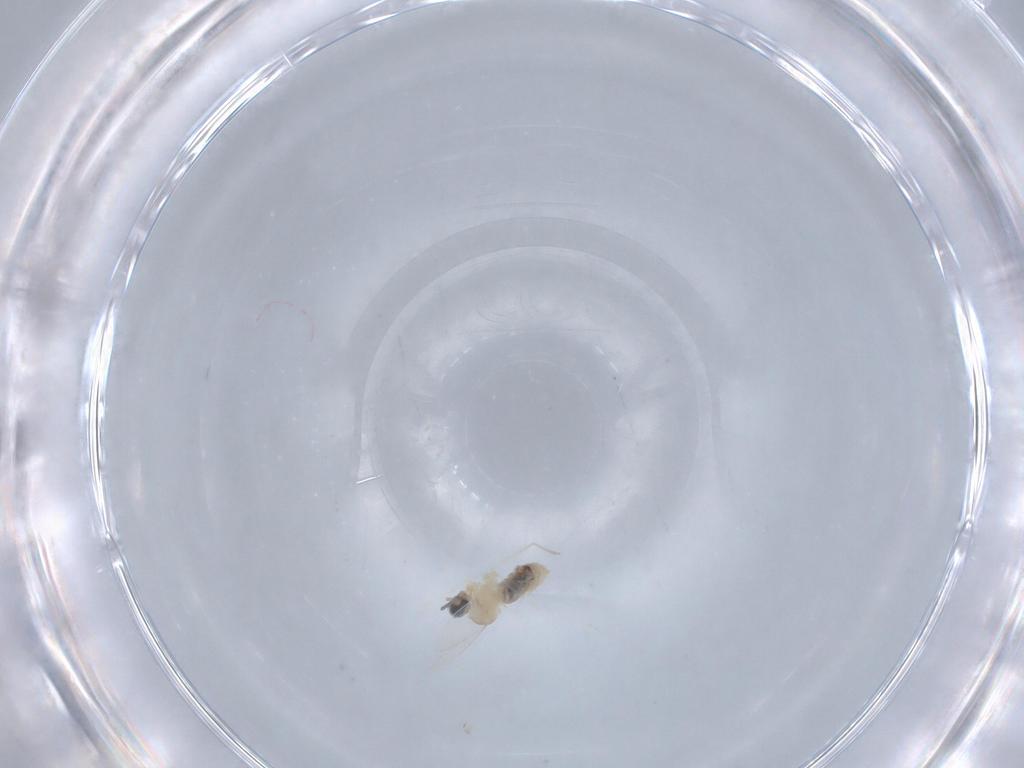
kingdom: Animalia
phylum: Arthropoda
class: Insecta
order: Diptera
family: Cecidomyiidae
